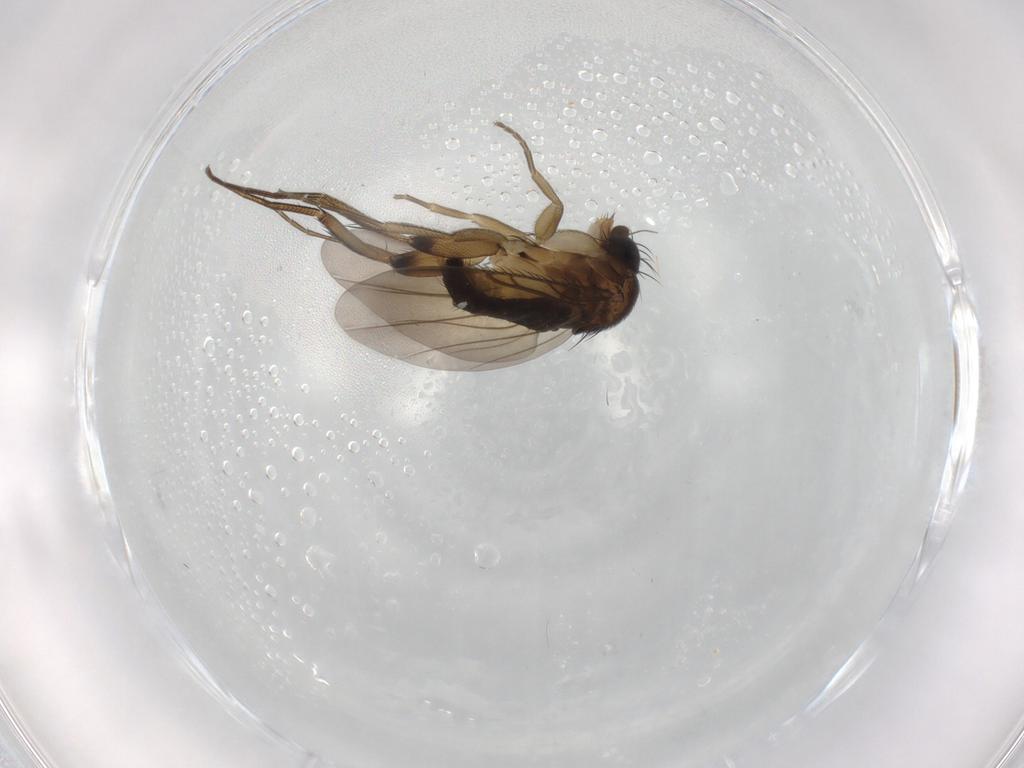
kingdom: Animalia
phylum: Arthropoda
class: Insecta
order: Diptera
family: Phoridae
